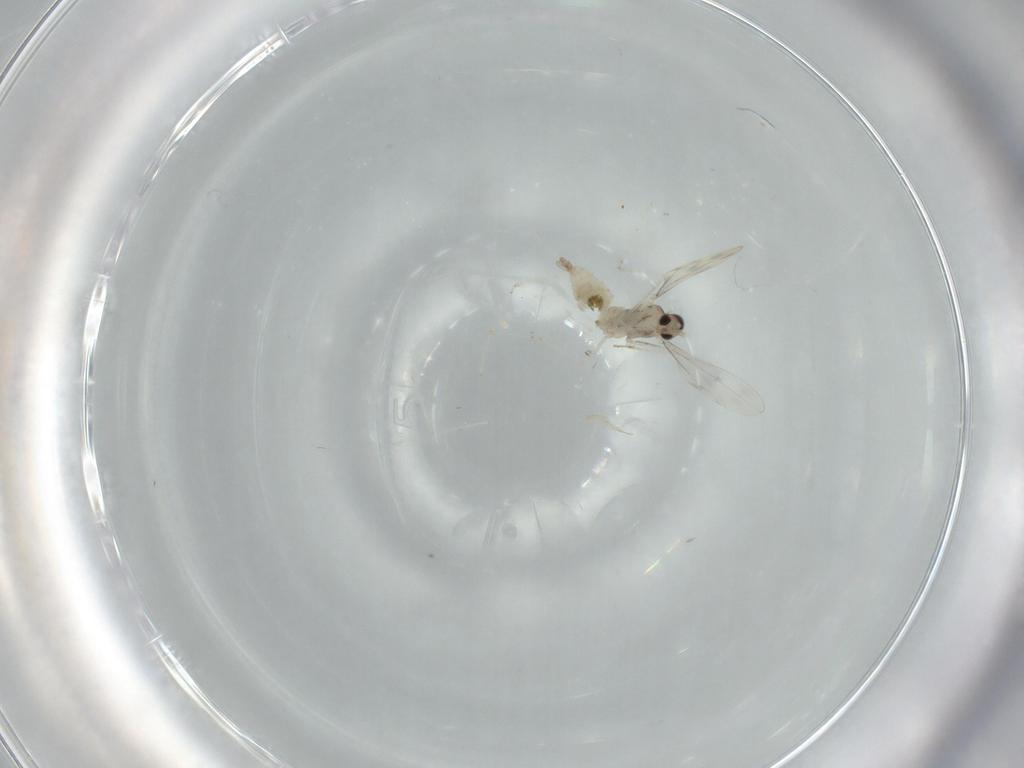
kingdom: Animalia
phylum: Arthropoda
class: Insecta
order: Diptera
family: Cecidomyiidae
